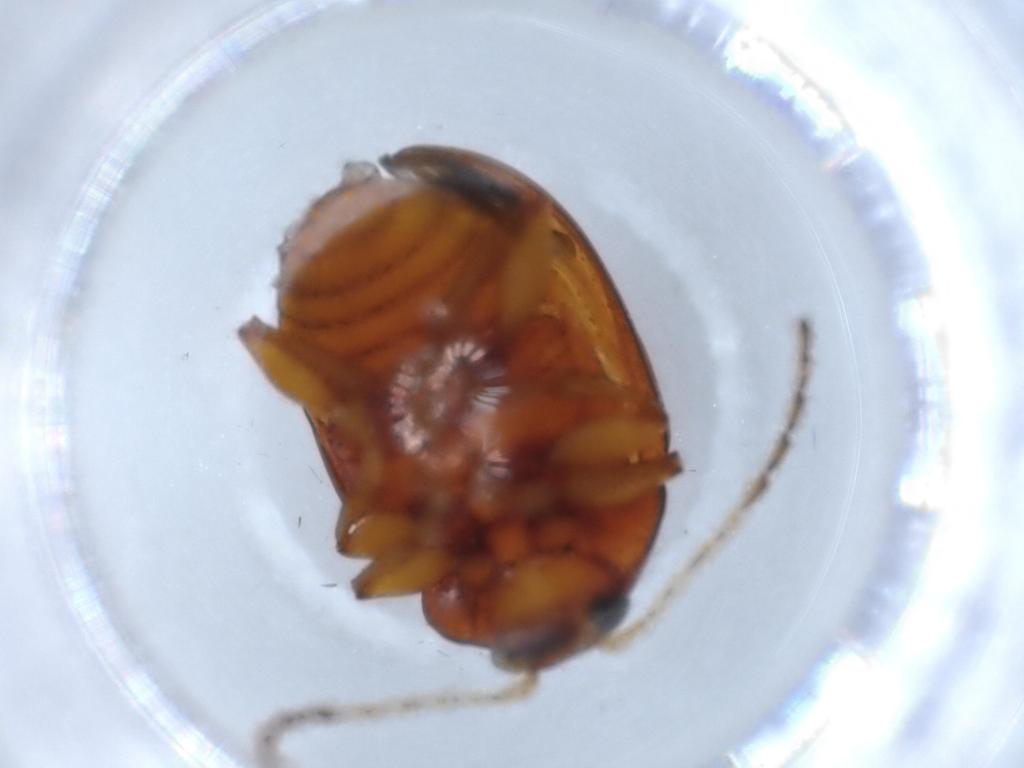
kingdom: Animalia
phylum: Arthropoda
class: Insecta
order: Coleoptera
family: Chrysomelidae
